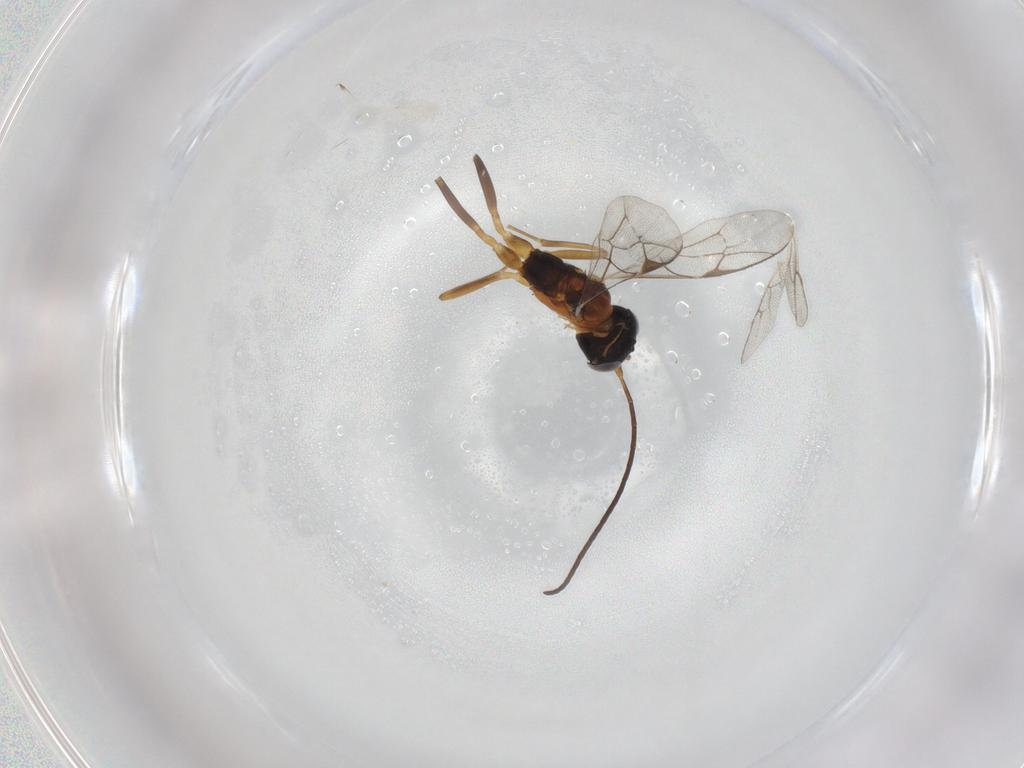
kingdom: Animalia
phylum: Arthropoda
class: Insecta
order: Hymenoptera
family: Ichneumonidae
